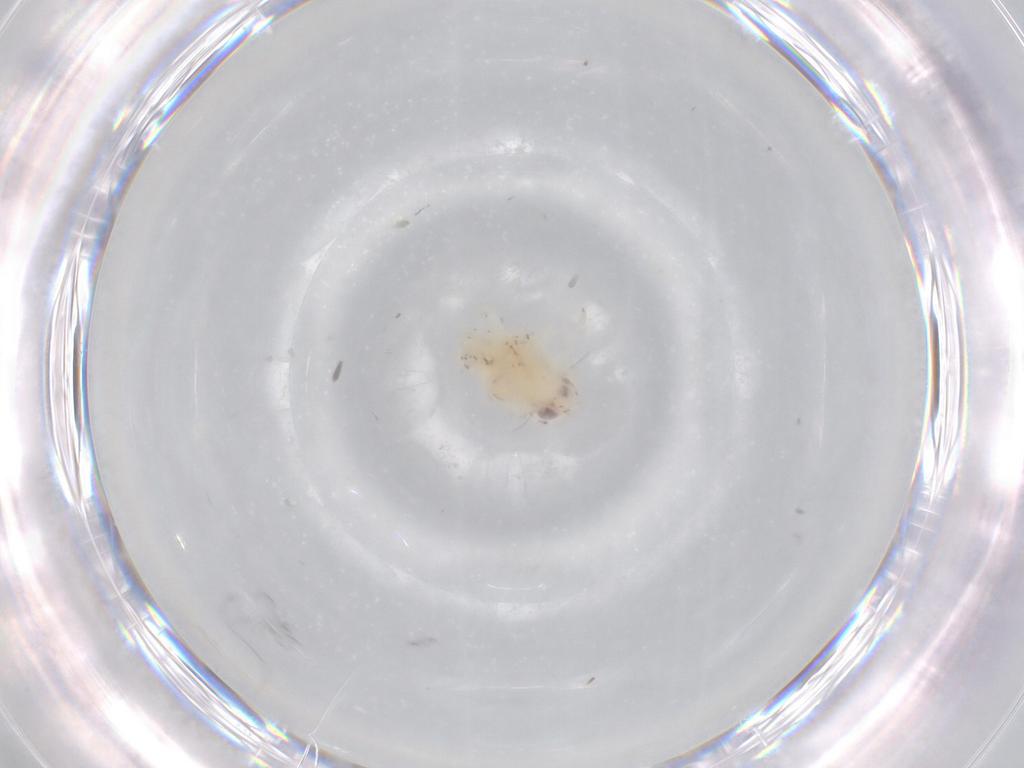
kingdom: Animalia
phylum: Arthropoda
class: Insecta
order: Hemiptera
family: Nogodinidae
